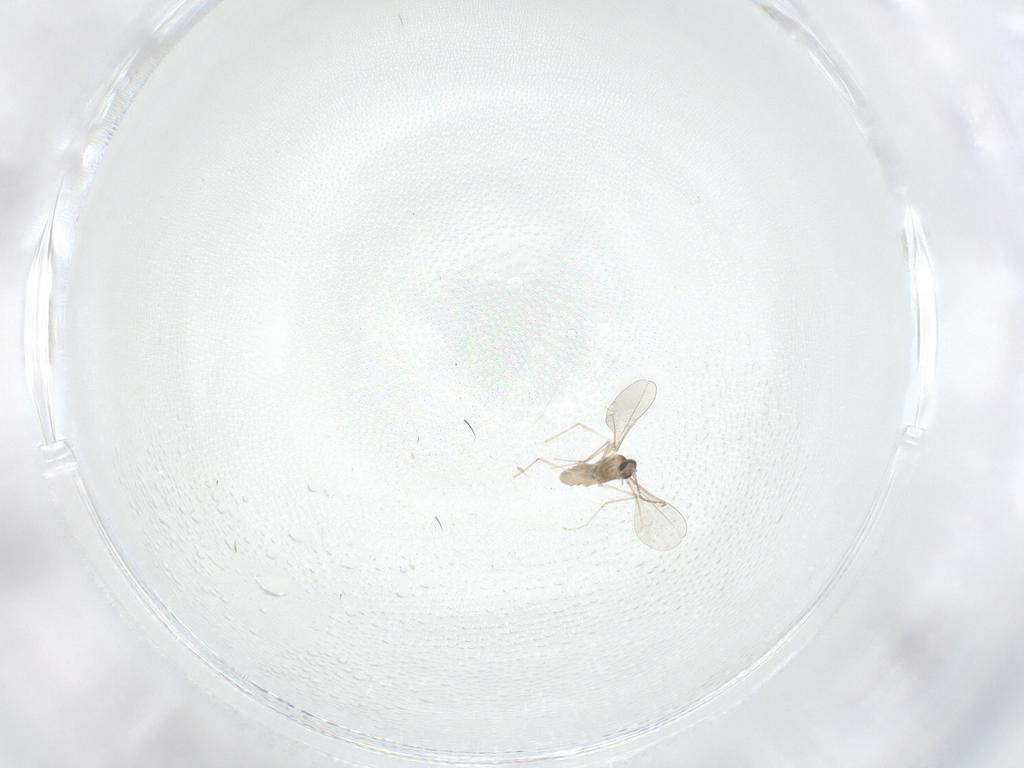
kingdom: Animalia
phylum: Arthropoda
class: Insecta
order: Diptera
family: Cecidomyiidae
